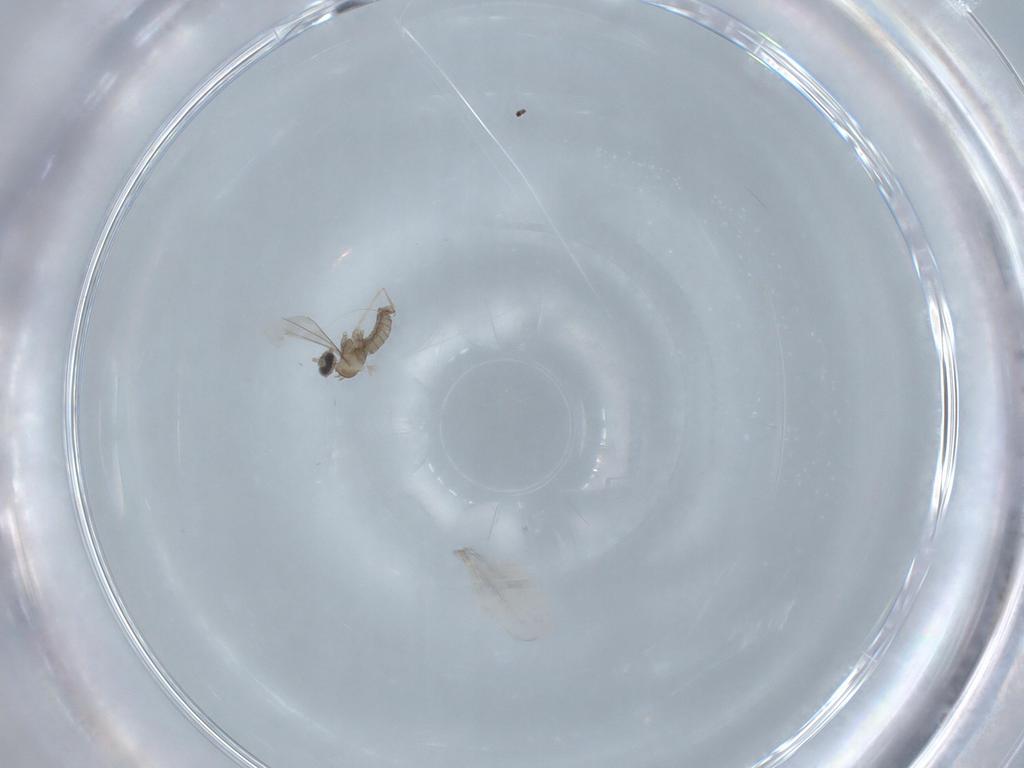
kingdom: Animalia
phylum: Arthropoda
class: Insecta
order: Diptera
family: Cecidomyiidae
